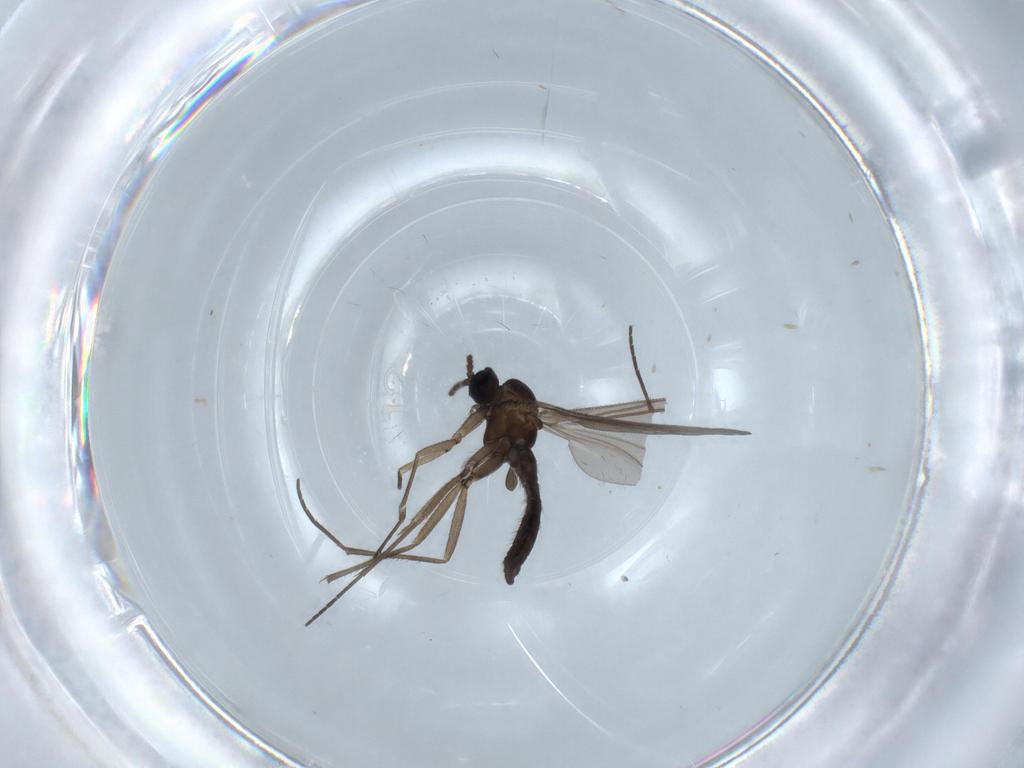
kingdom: Animalia
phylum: Arthropoda
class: Insecta
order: Diptera
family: Sciaridae
